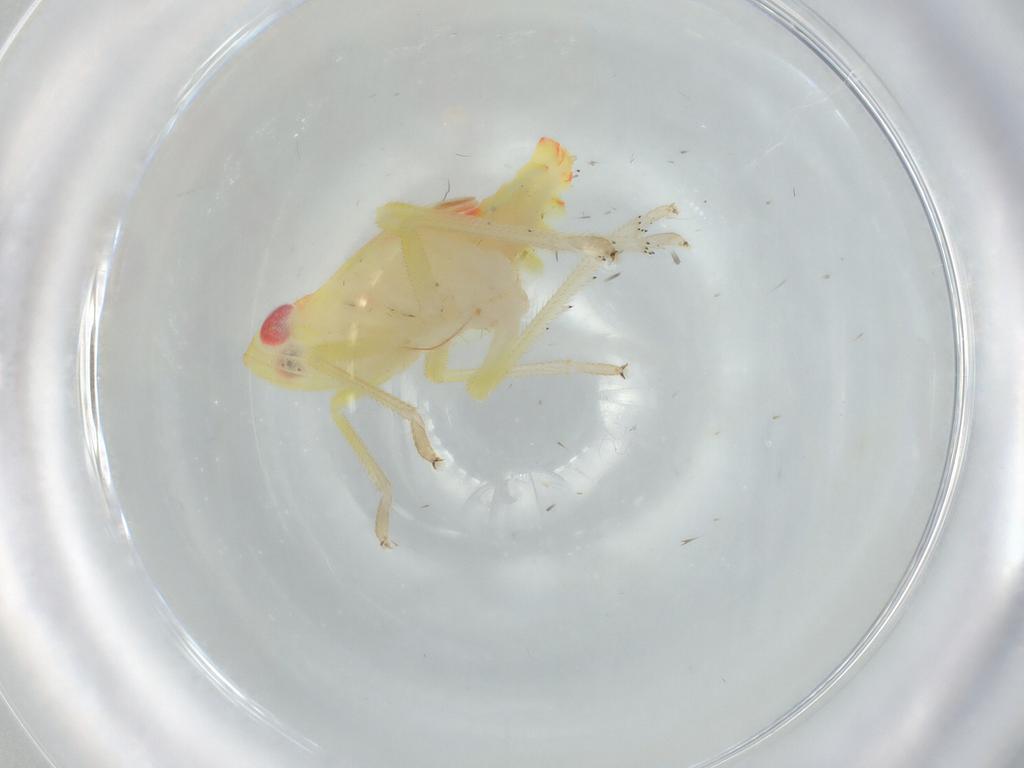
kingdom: Animalia
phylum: Arthropoda
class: Insecta
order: Hemiptera
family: Tropiduchidae
